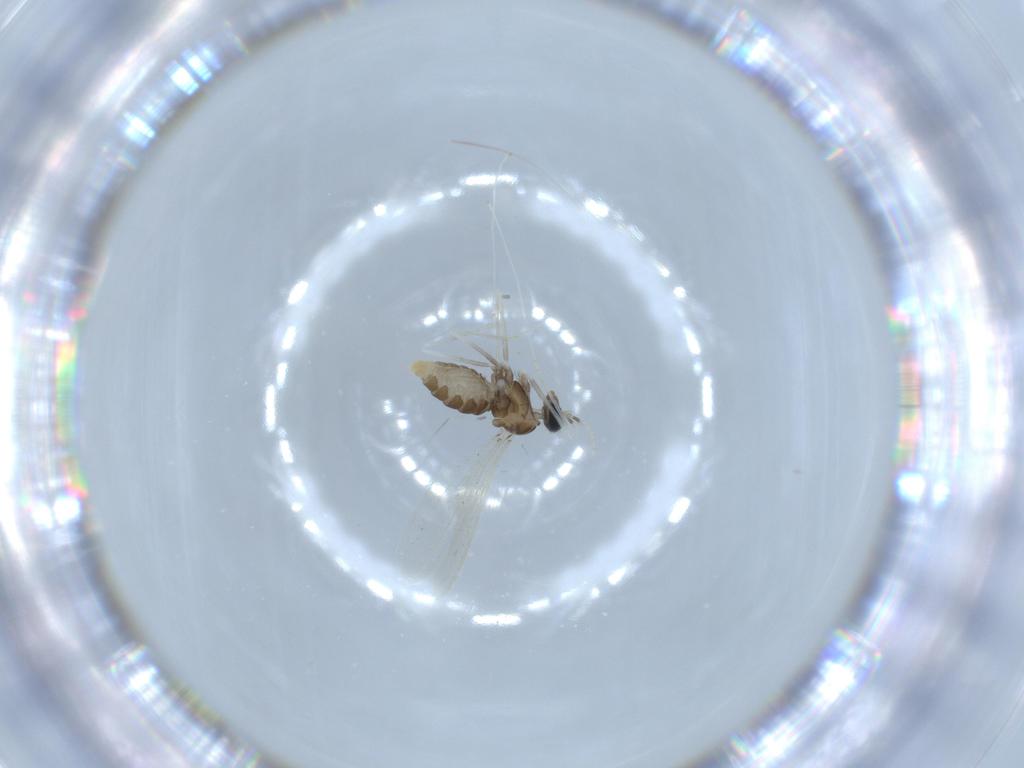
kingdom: Animalia
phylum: Arthropoda
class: Insecta
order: Diptera
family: Cecidomyiidae
